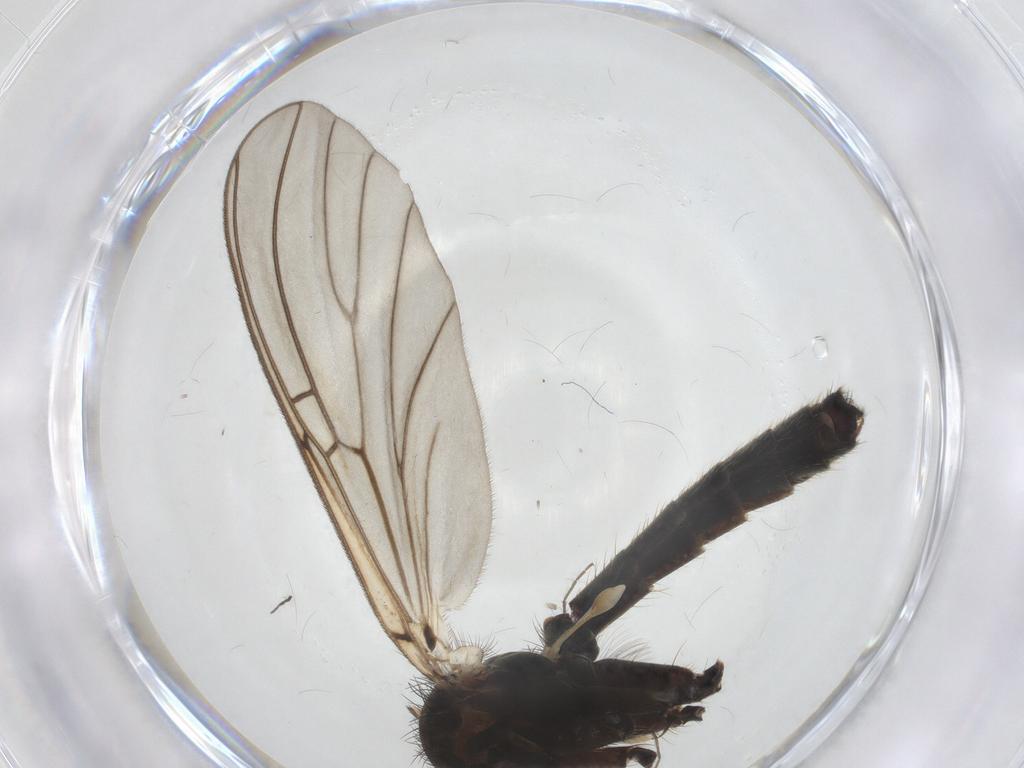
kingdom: Animalia
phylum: Arthropoda
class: Insecta
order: Diptera
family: Mycetophilidae
